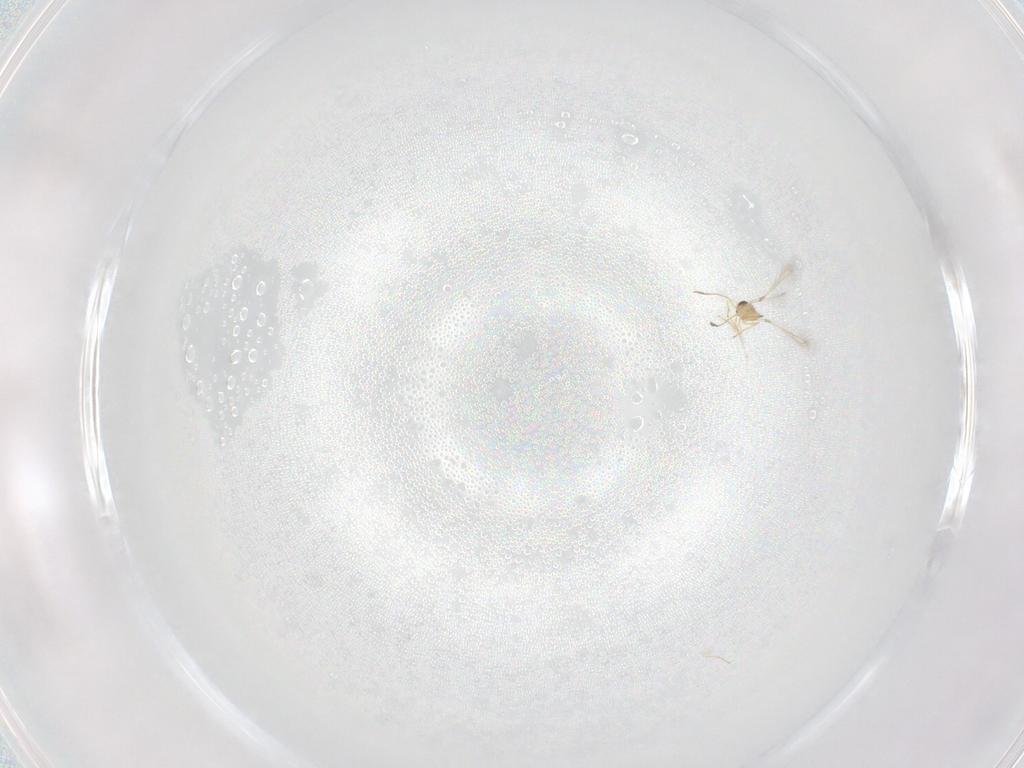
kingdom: Animalia
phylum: Arthropoda
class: Insecta
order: Hymenoptera
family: Mymaridae
